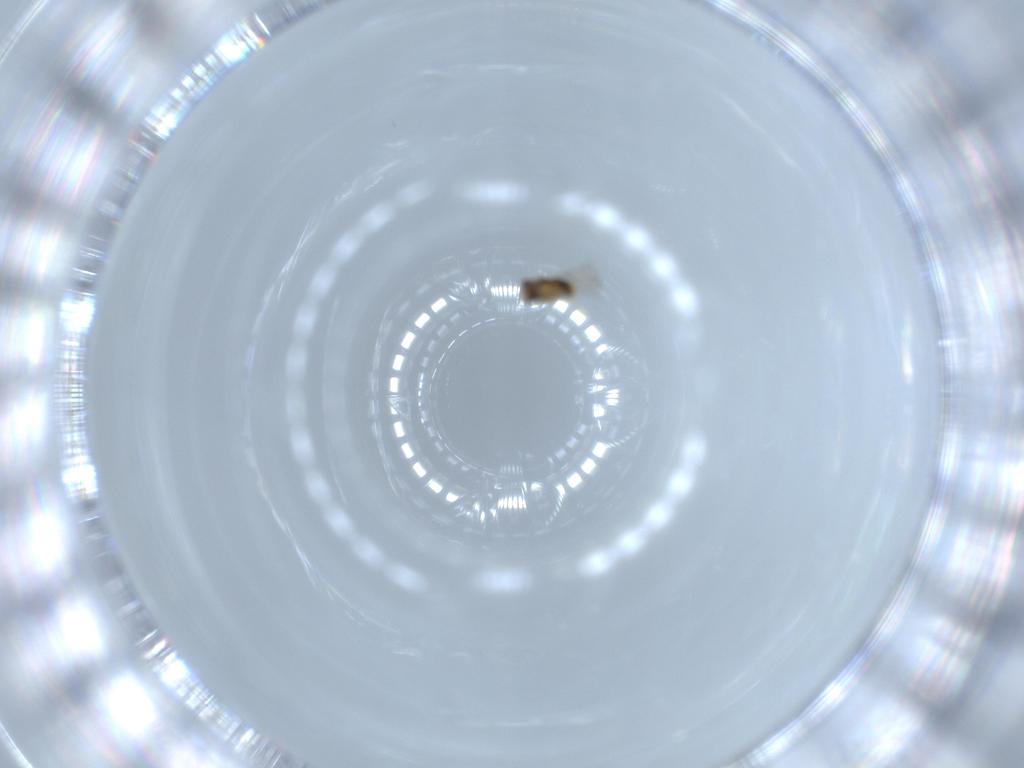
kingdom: Animalia
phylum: Arthropoda
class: Insecta
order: Hymenoptera
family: Aphelinidae
